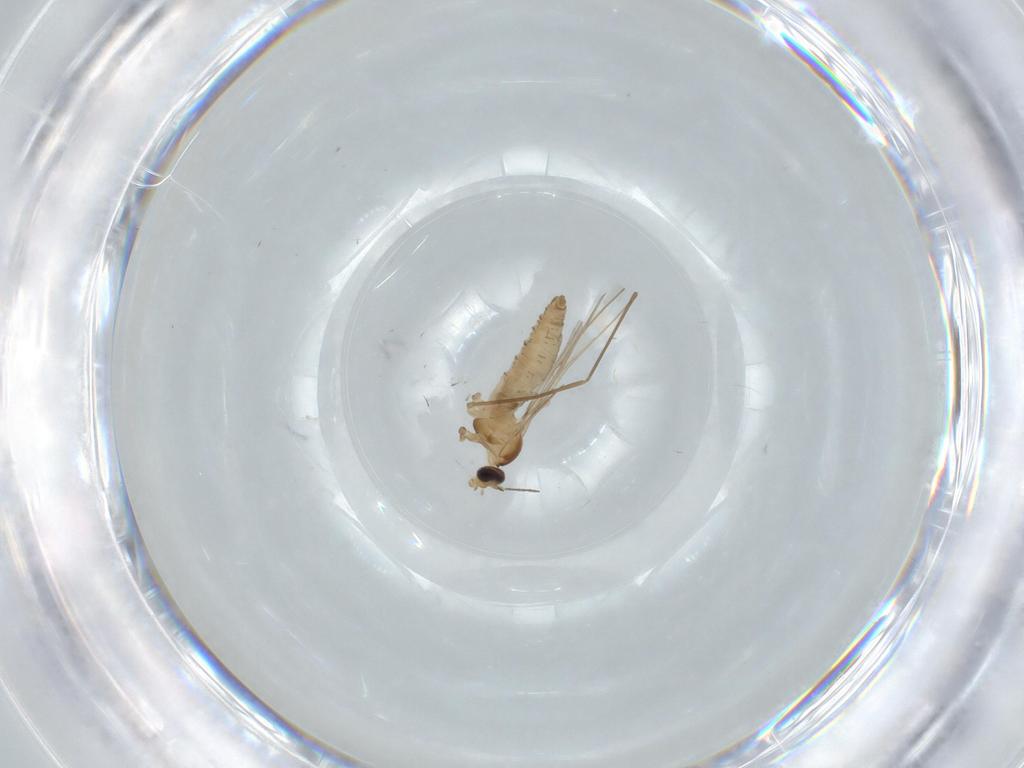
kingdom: Animalia
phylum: Arthropoda
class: Insecta
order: Diptera
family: Cecidomyiidae
